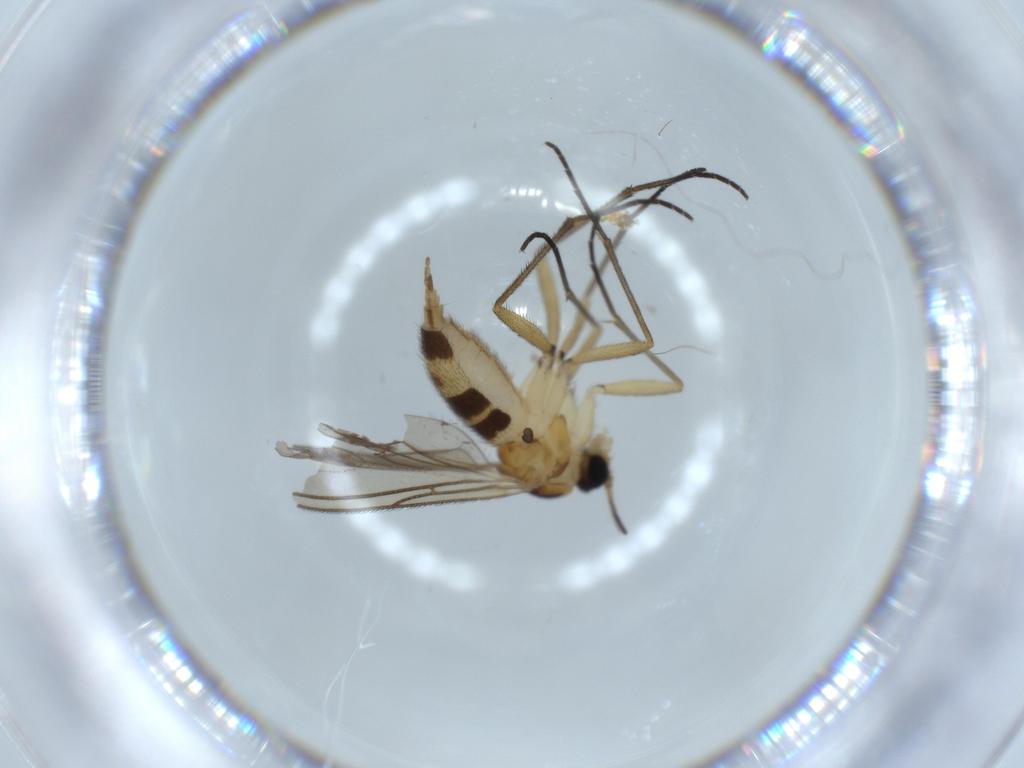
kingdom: Animalia
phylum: Arthropoda
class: Insecta
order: Diptera
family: Sciaridae
